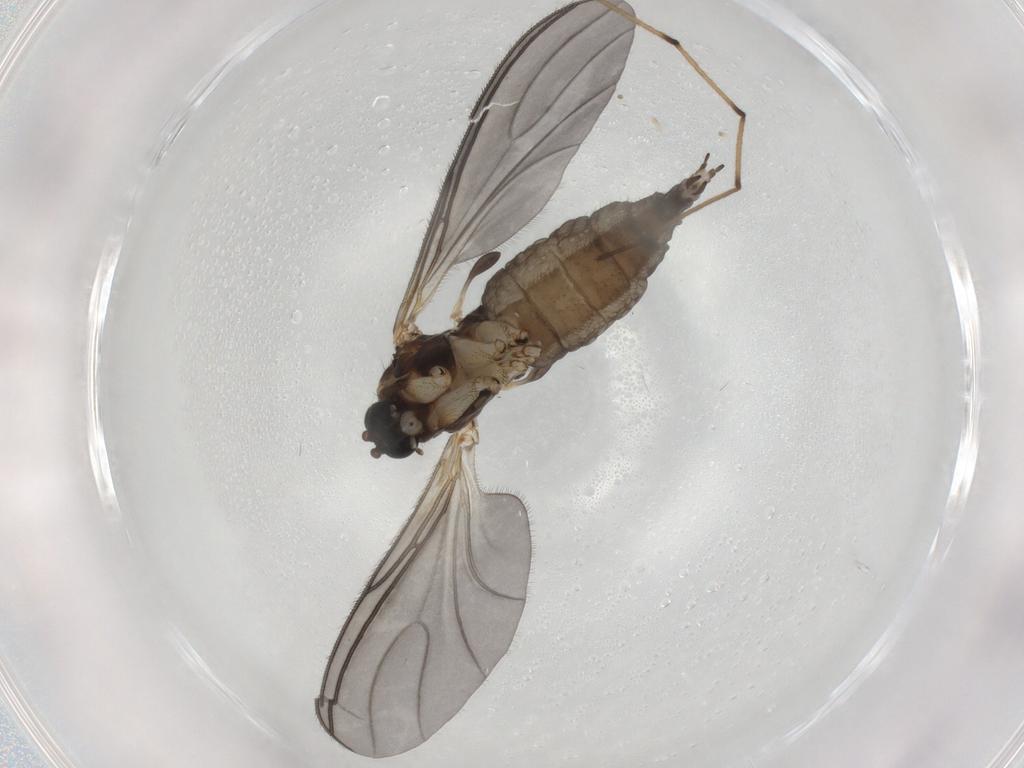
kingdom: Animalia
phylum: Arthropoda
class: Insecta
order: Diptera
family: Sciaridae
